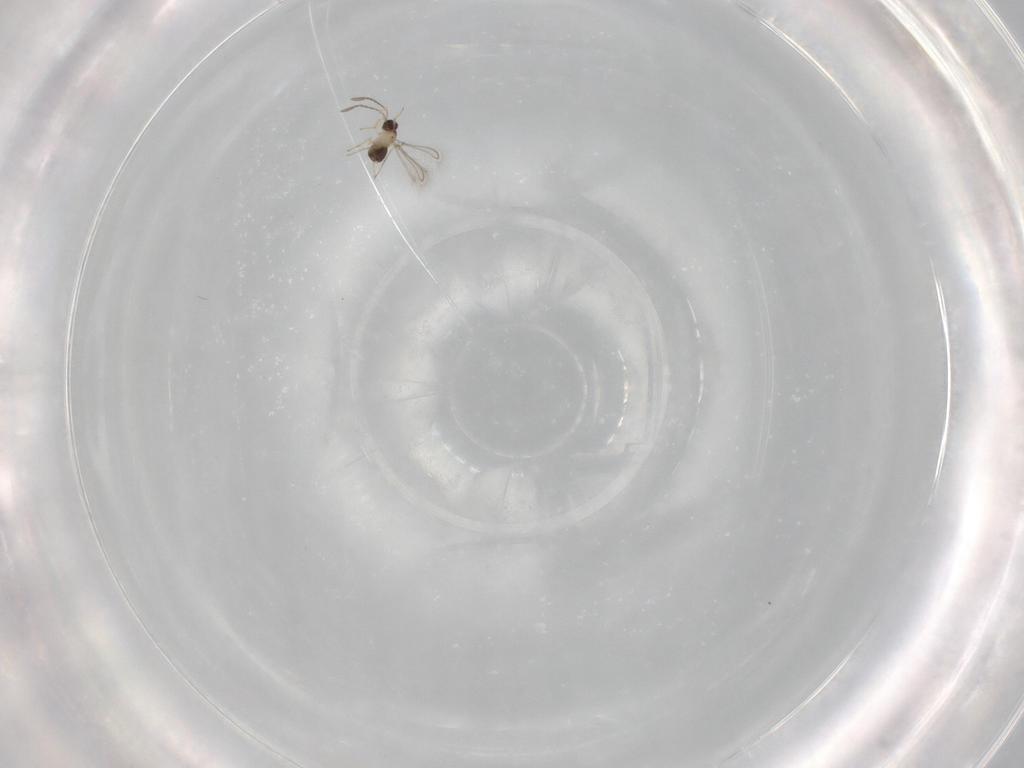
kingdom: Animalia
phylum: Arthropoda
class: Insecta
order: Hymenoptera
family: Mymaridae
